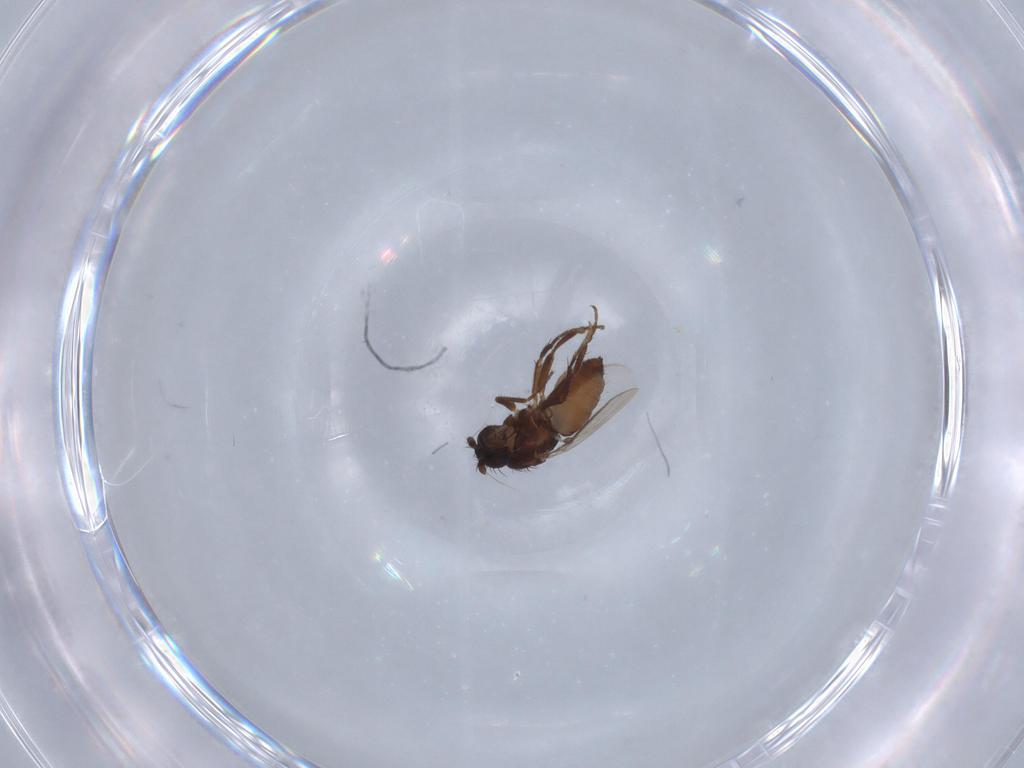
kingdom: Animalia
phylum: Arthropoda
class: Insecta
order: Diptera
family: Sphaeroceridae
